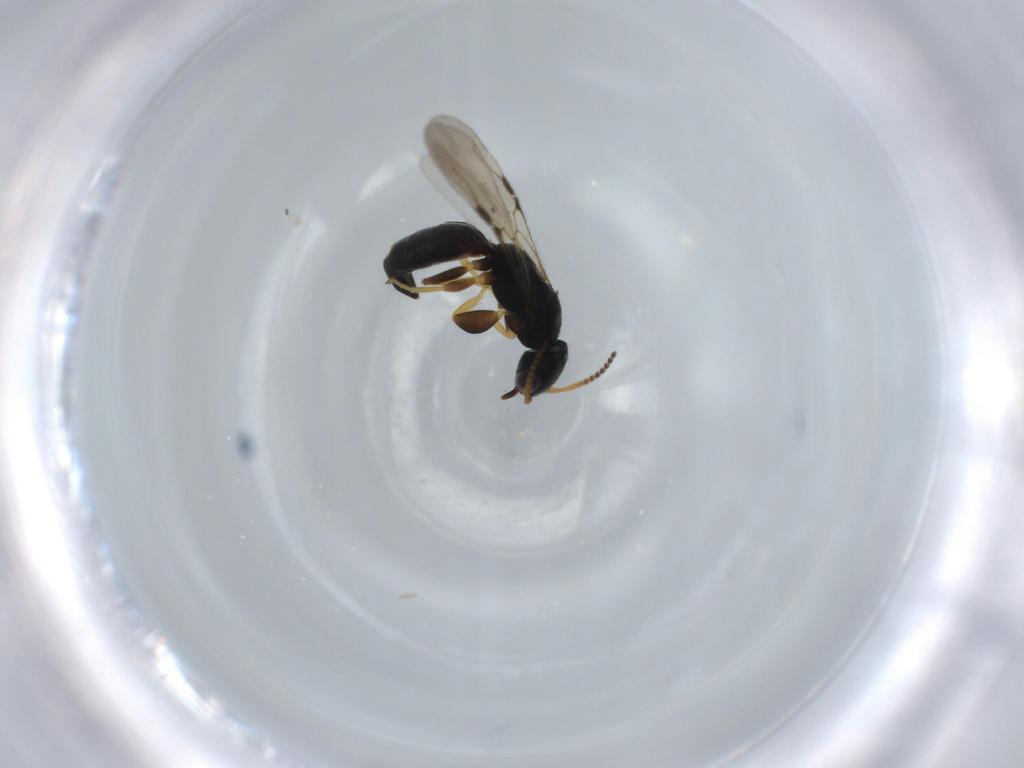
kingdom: Animalia
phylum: Arthropoda
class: Insecta
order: Hymenoptera
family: Bethylidae
